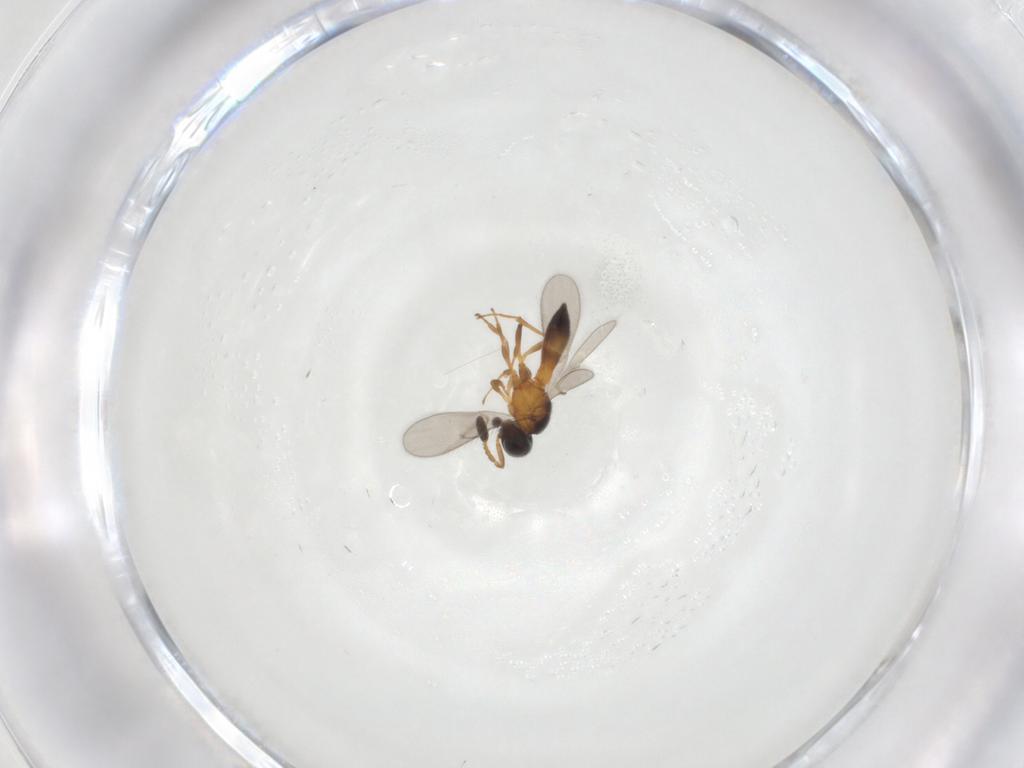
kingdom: Animalia
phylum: Arthropoda
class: Insecta
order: Hymenoptera
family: Scelionidae
